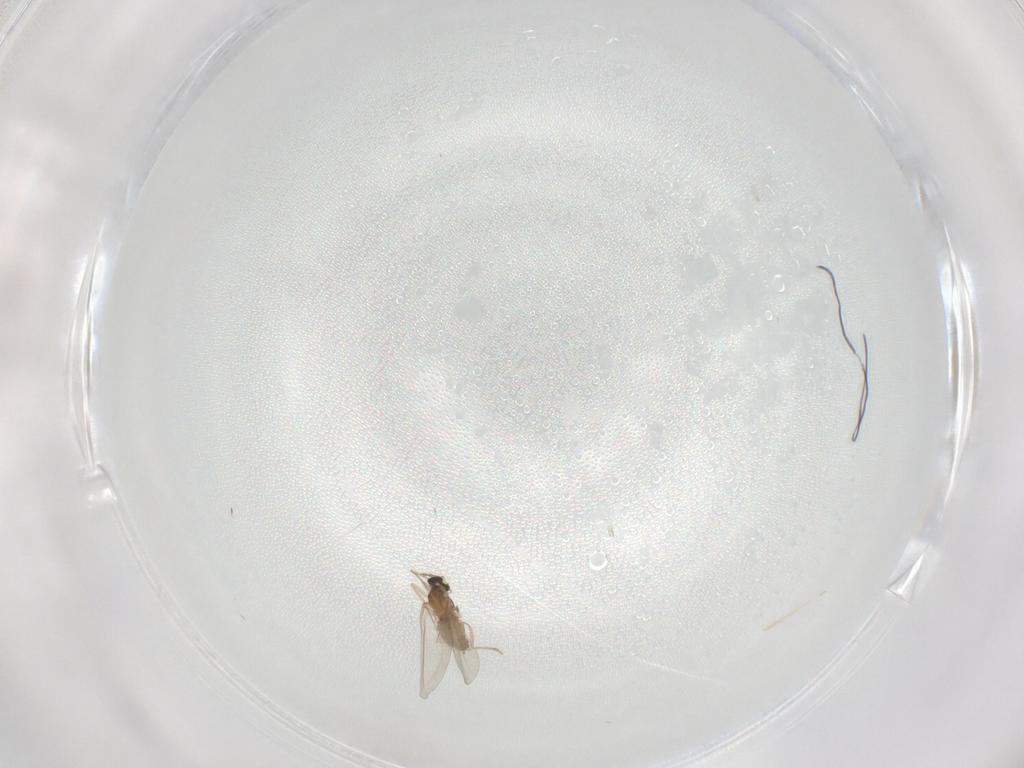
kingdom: Animalia
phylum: Arthropoda
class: Insecta
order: Diptera
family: Cecidomyiidae
